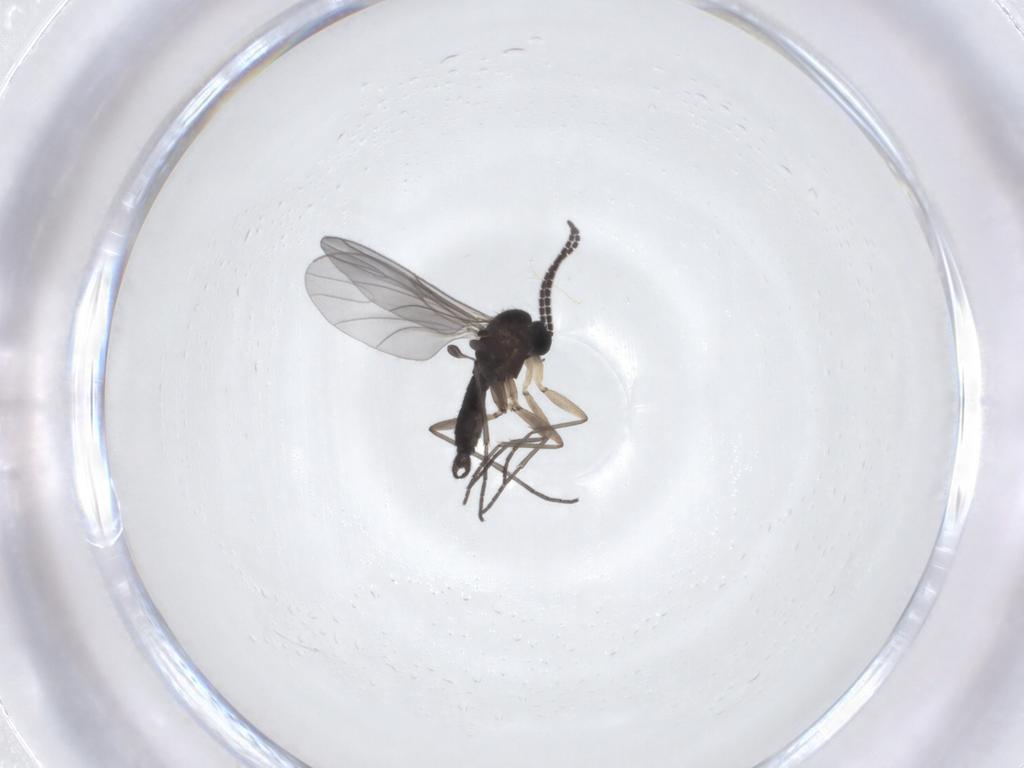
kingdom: Animalia
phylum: Arthropoda
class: Insecta
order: Diptera
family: Sciaridae
